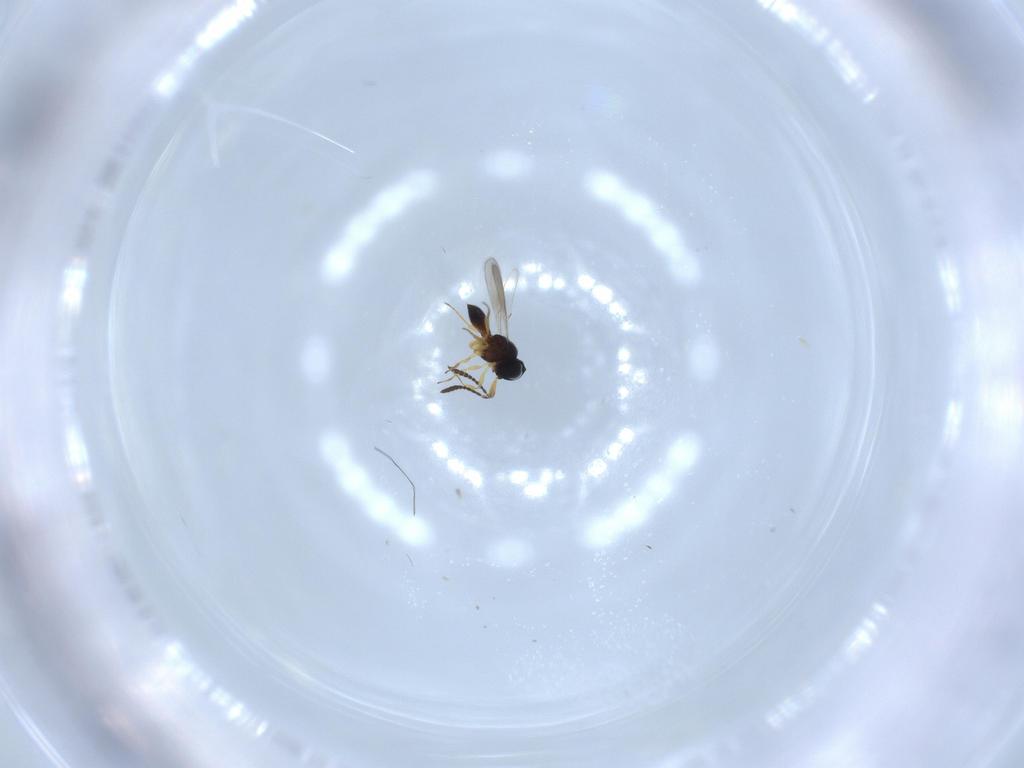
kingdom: Animalia
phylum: Arthropoda
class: Insecta
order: Hymenoptera
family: Scelionidae
